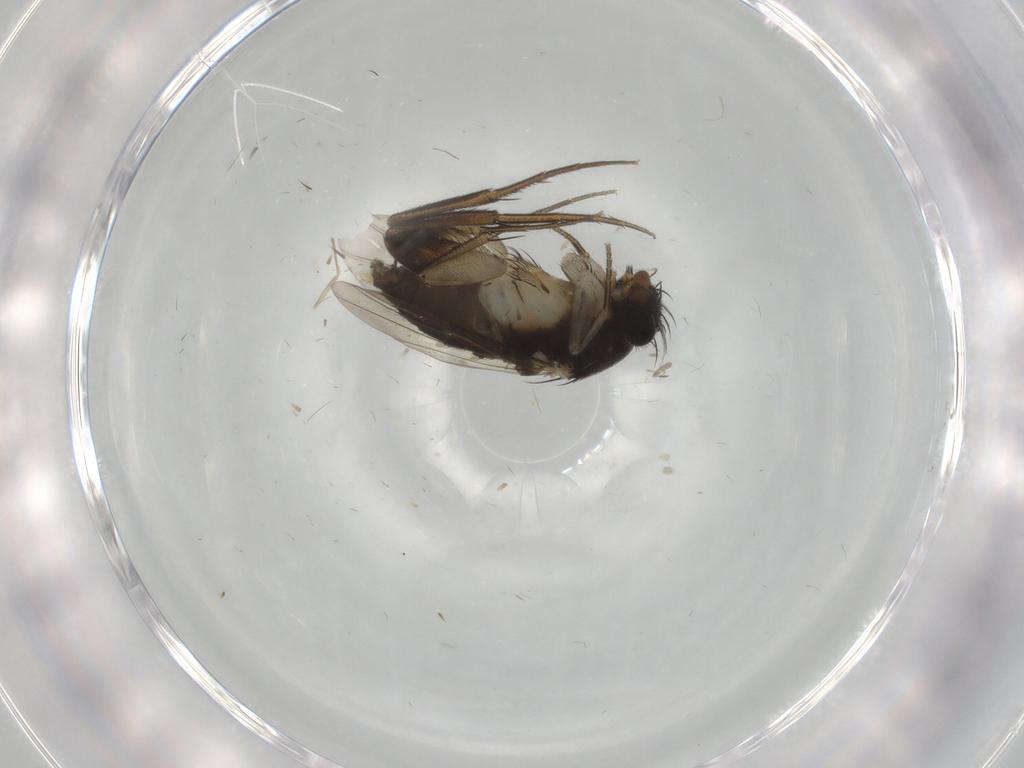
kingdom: Animalia
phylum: Arthropoda
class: Insecta
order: Diptera
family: Phoridae
